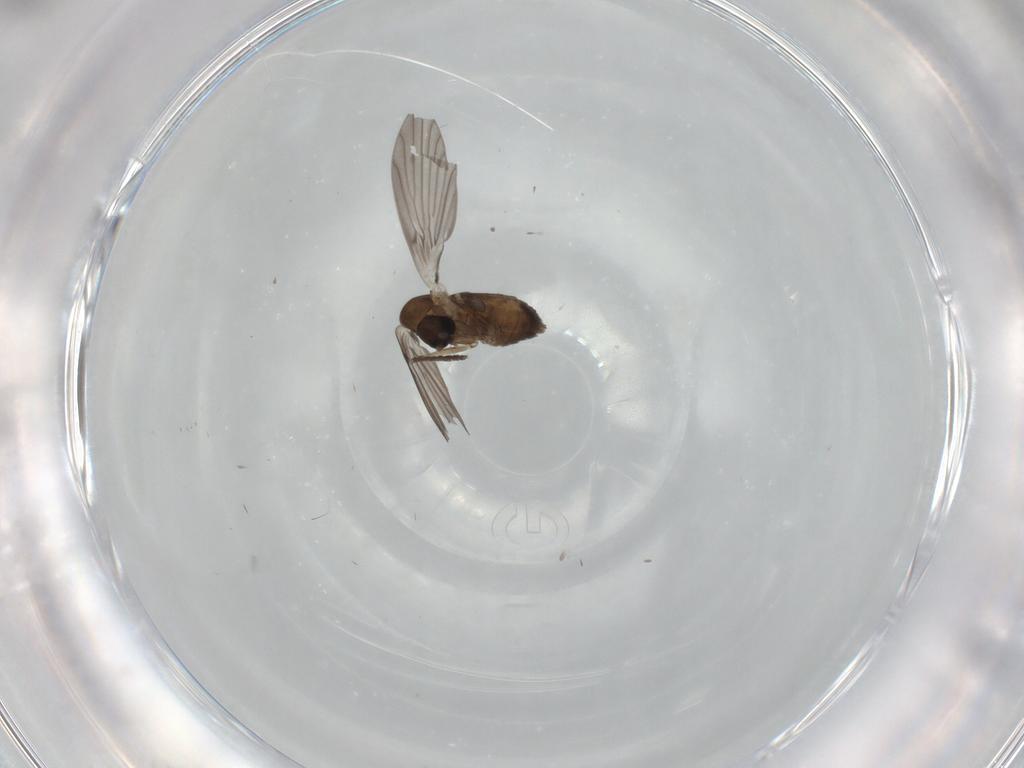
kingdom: Animalia
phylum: Arthropoda
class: Insecta
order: Diptera
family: Psychodidae
